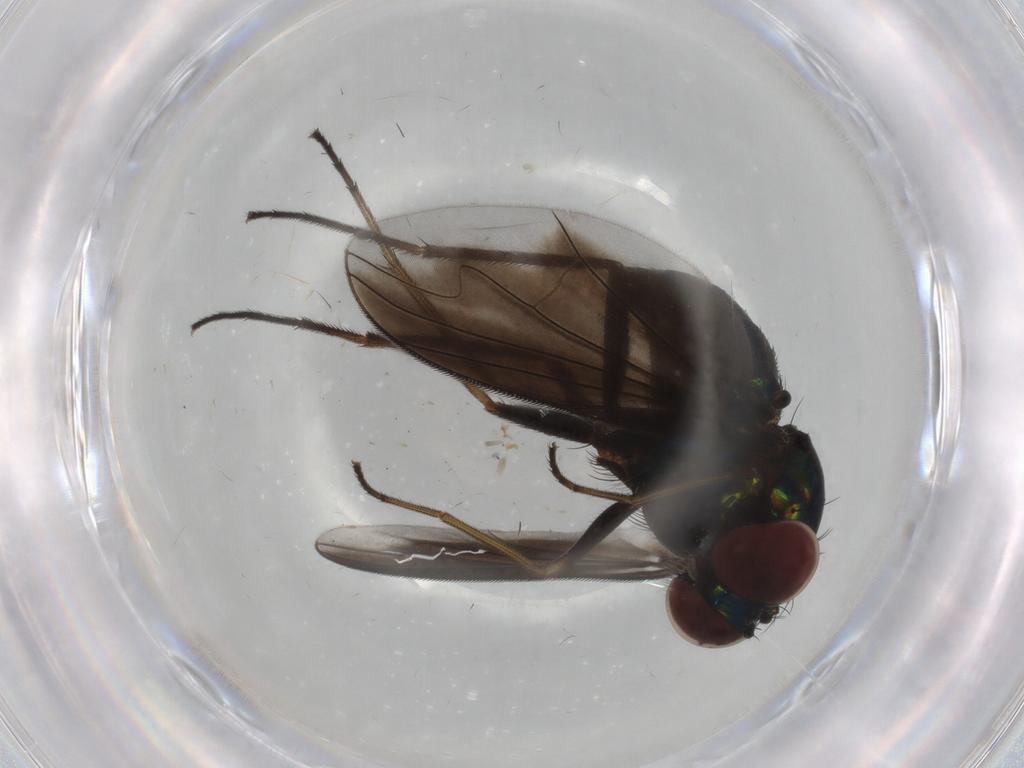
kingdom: Animalia
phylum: Arthropoda
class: Insecta
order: Diptera
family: Dolichopodidae
